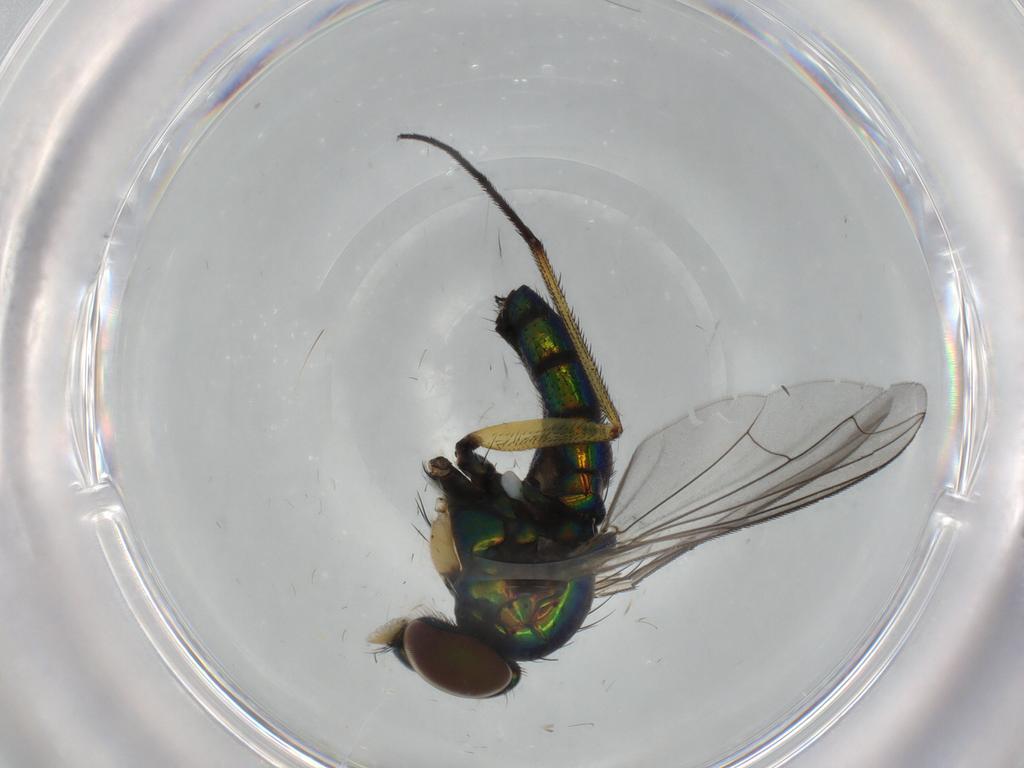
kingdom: Animalia
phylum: Arthropoda
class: Insecta
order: Diptera
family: Dolichopodidae
